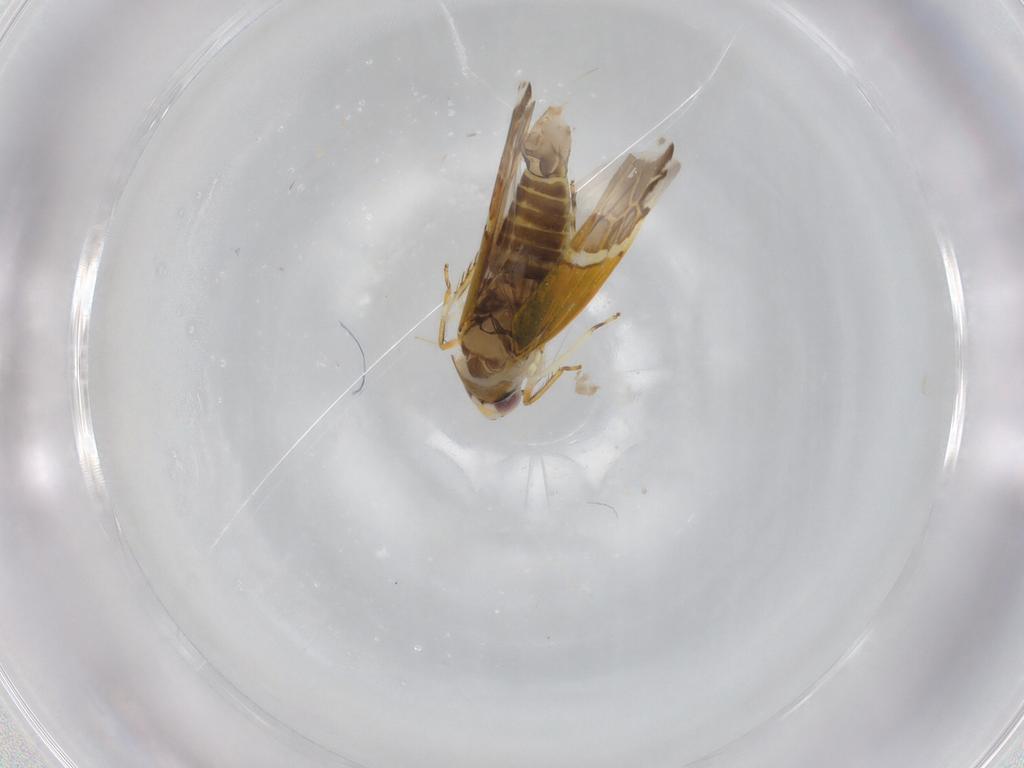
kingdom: Animalia
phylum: Arthropoda
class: Insecta
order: Hemiptera
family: Cicadellidae
